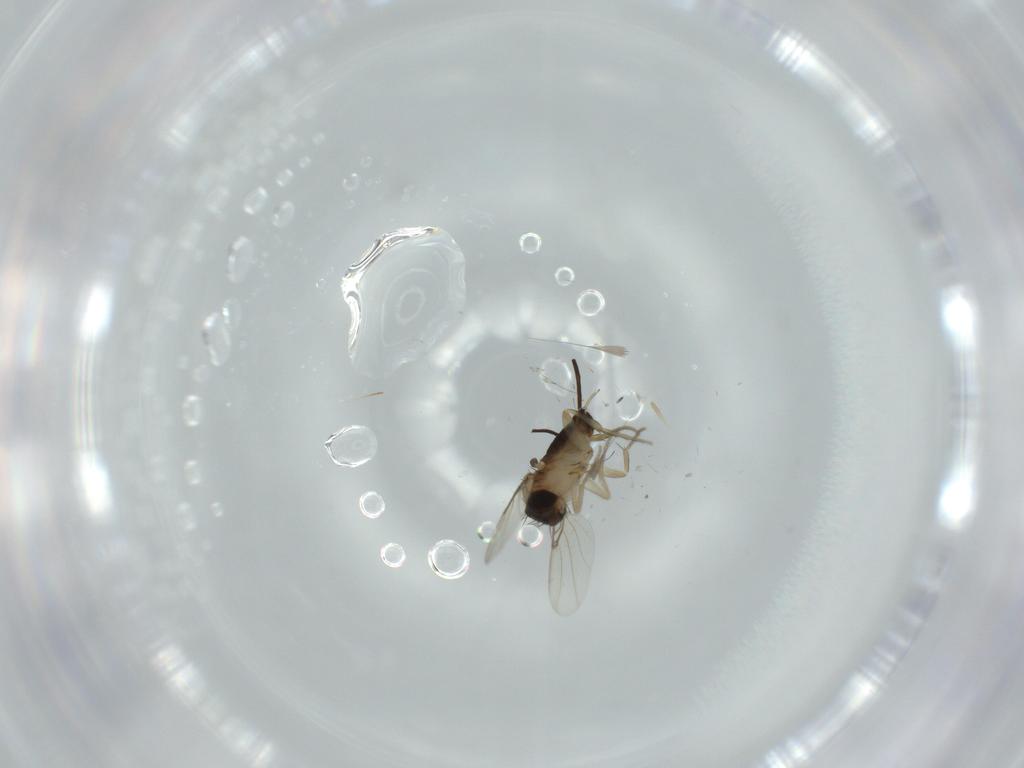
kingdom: Animalia
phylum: Arthropoda
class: Insecta
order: Diptera
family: Phoridae
